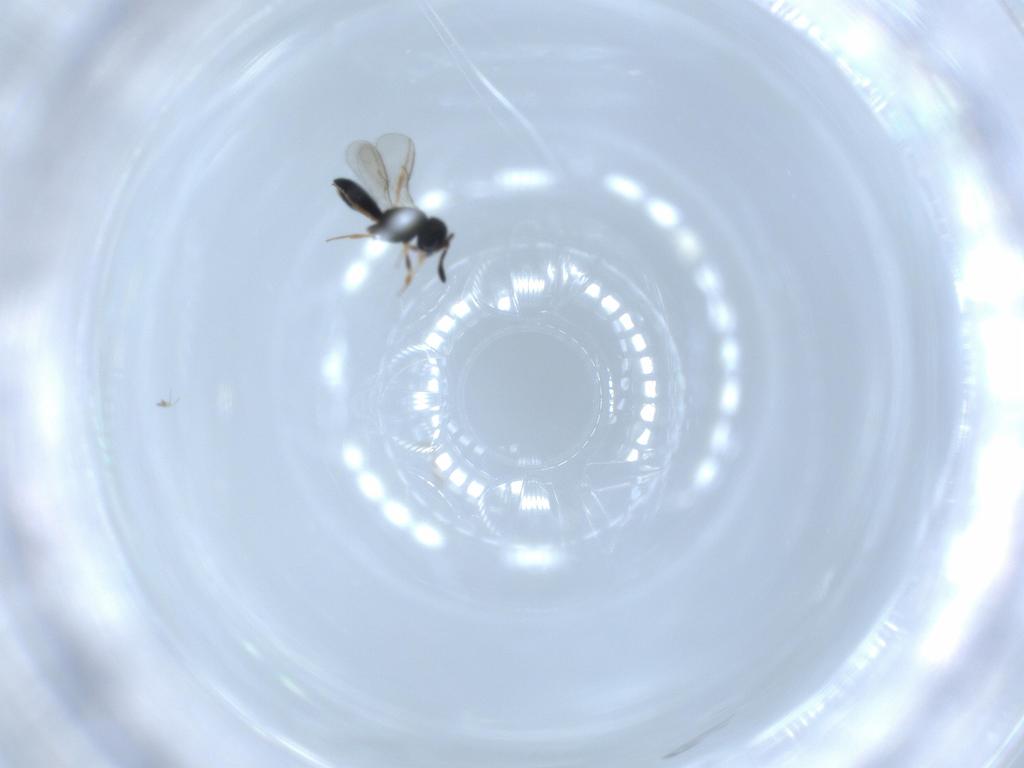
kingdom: Animalia
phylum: Arthropoda
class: Insecta
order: Hymenoptera
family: Scelionidae
